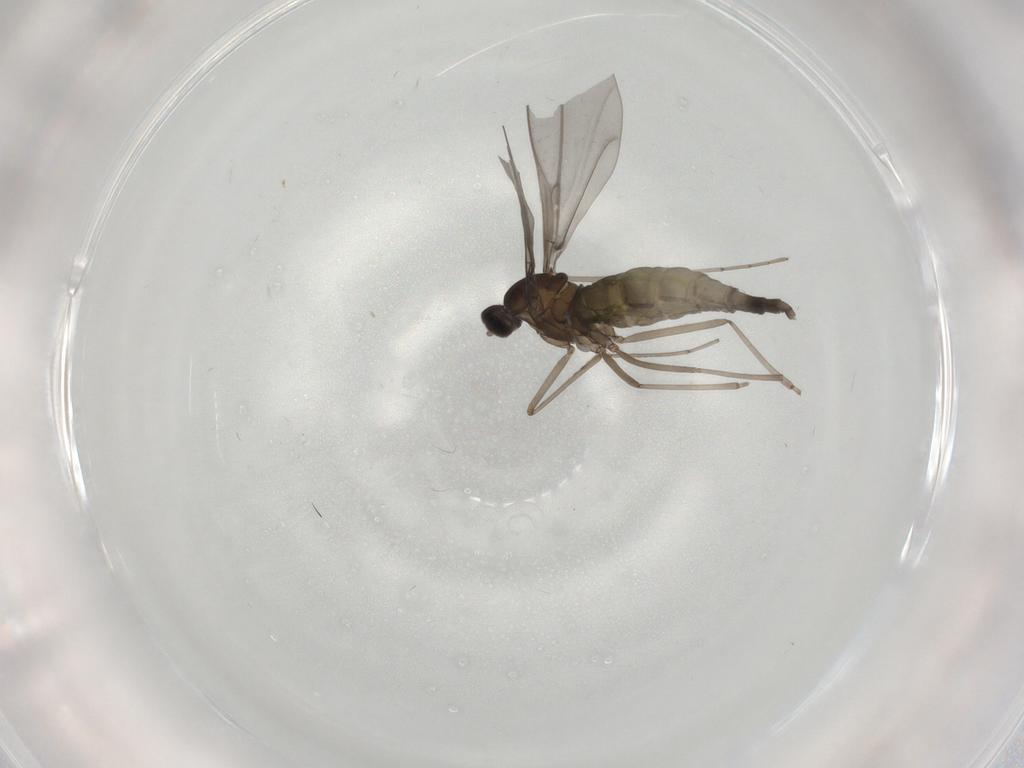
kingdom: Animalia
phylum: Arthropoda
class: Insecta
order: Diptera
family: Cecidomyiidae
